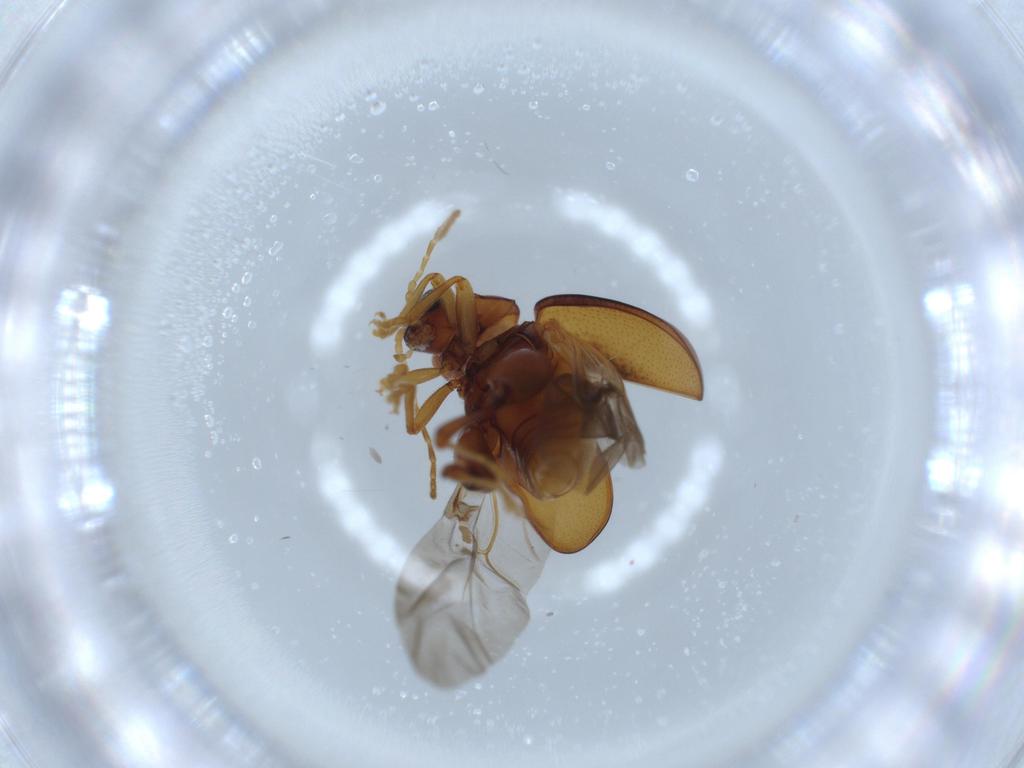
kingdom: Animalia
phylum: Arthropoda
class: Insecta
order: Coleoptera
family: Chrysomelidae
